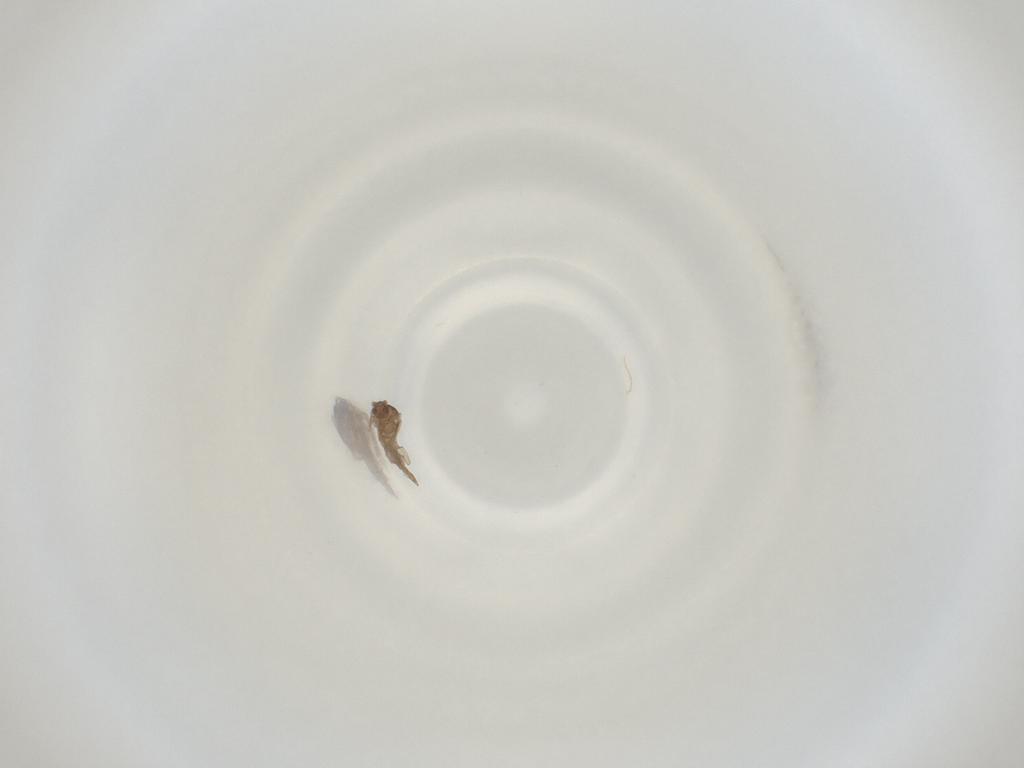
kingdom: Animalia
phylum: Arthropoda
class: Insecta
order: Diptera
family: Cecidomyiidae
